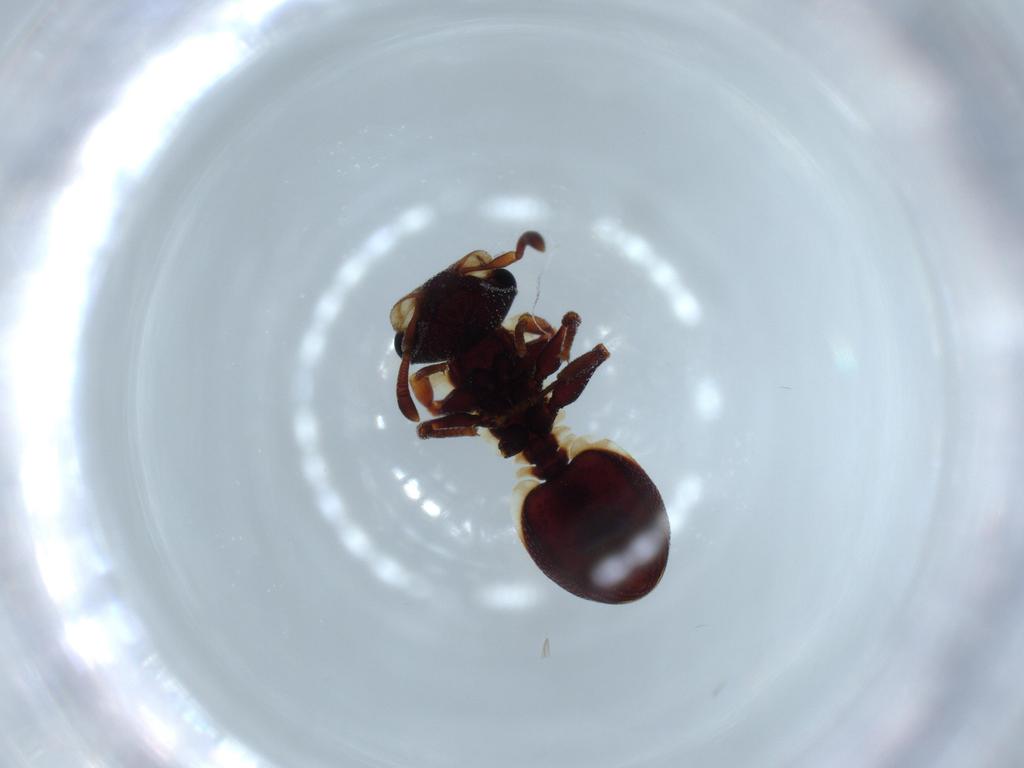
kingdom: Animalia
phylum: Arthropoda
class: Insecta
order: Hymenoptera
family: Formicidae
